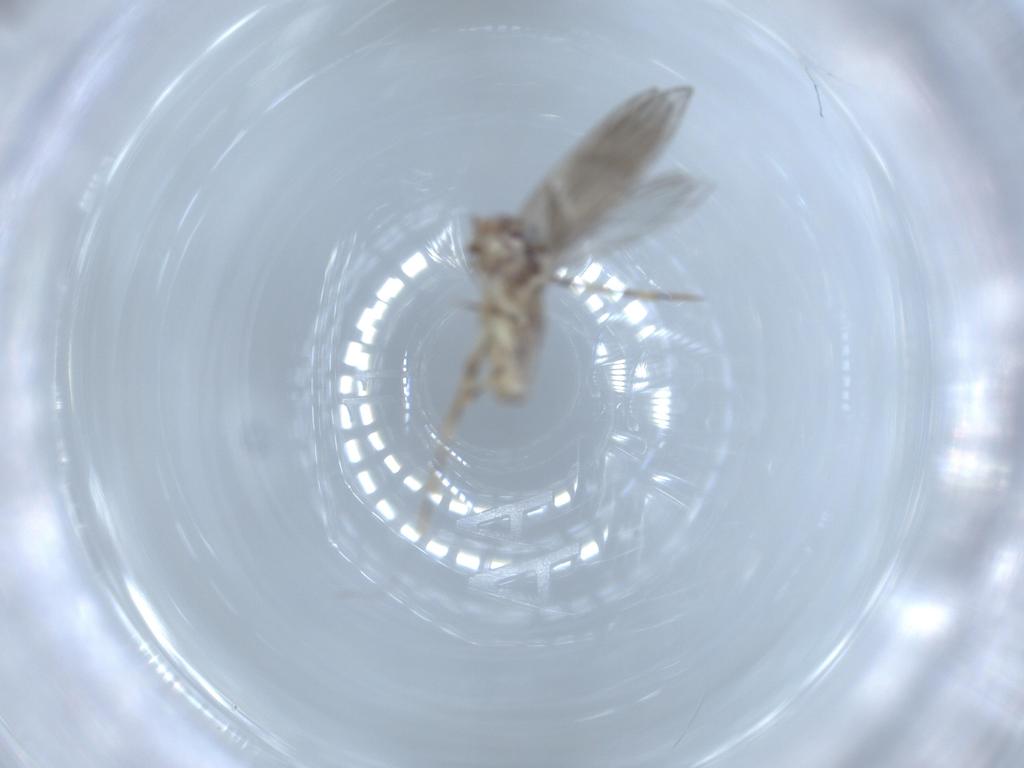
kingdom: Animalia
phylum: Arthropoda
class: Insecta
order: Psocodea
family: Lepidopsocidae
